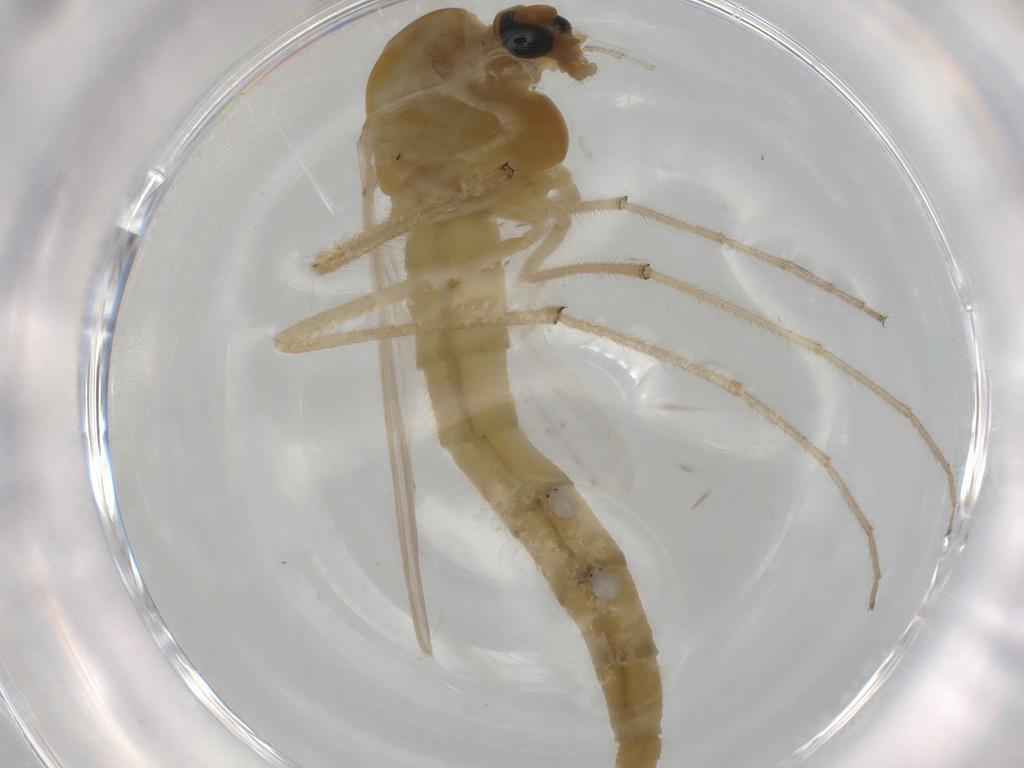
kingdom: Animalia
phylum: Arthropoda
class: Insecta
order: Diptera
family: Chironomidae
